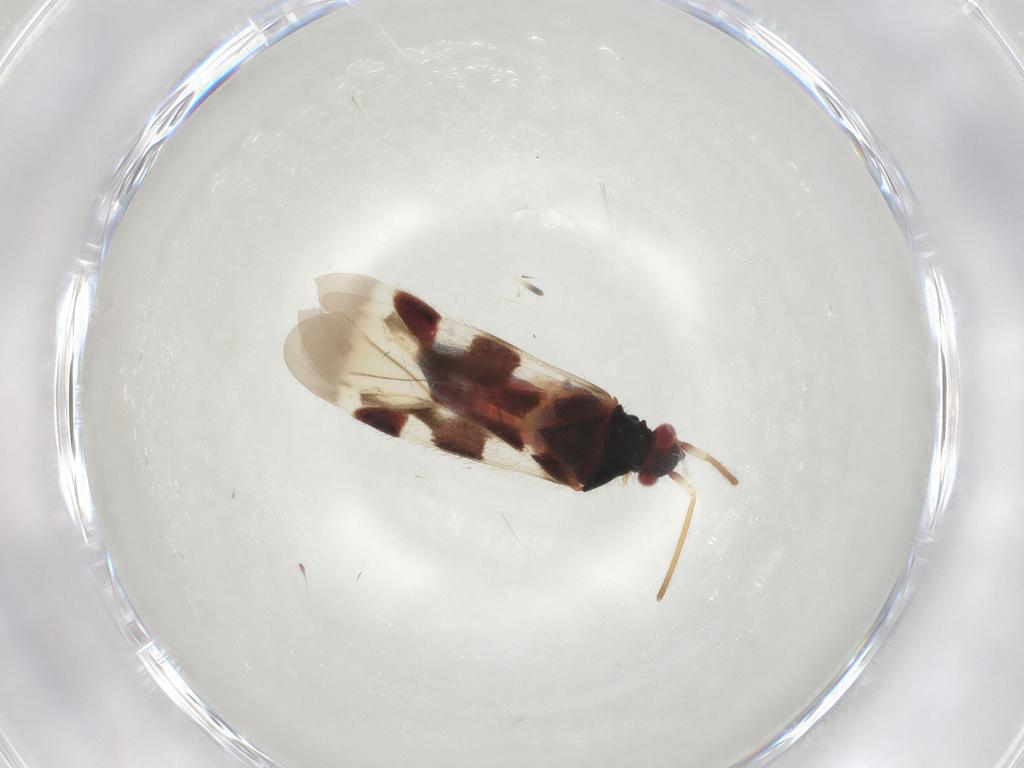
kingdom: Animalia
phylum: Arthropoda
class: Insecta
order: Hemiptera
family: Miridae
